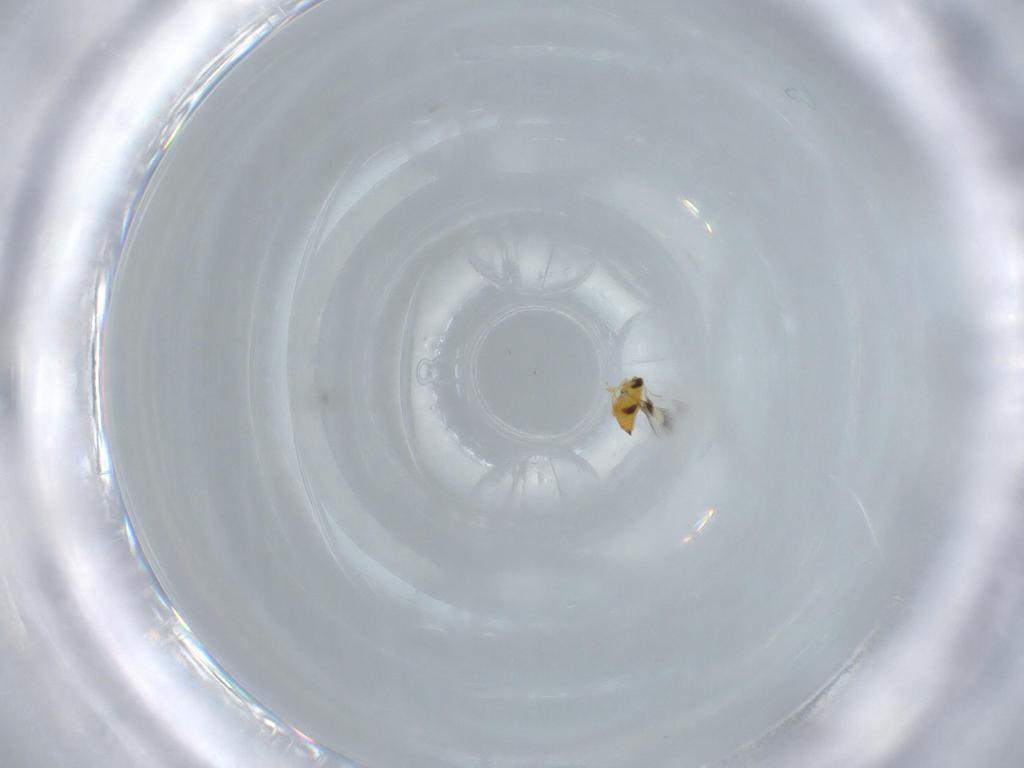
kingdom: Animalia
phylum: Arthropoda
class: Insecta
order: Hymenoptera
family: Signiphoridae
